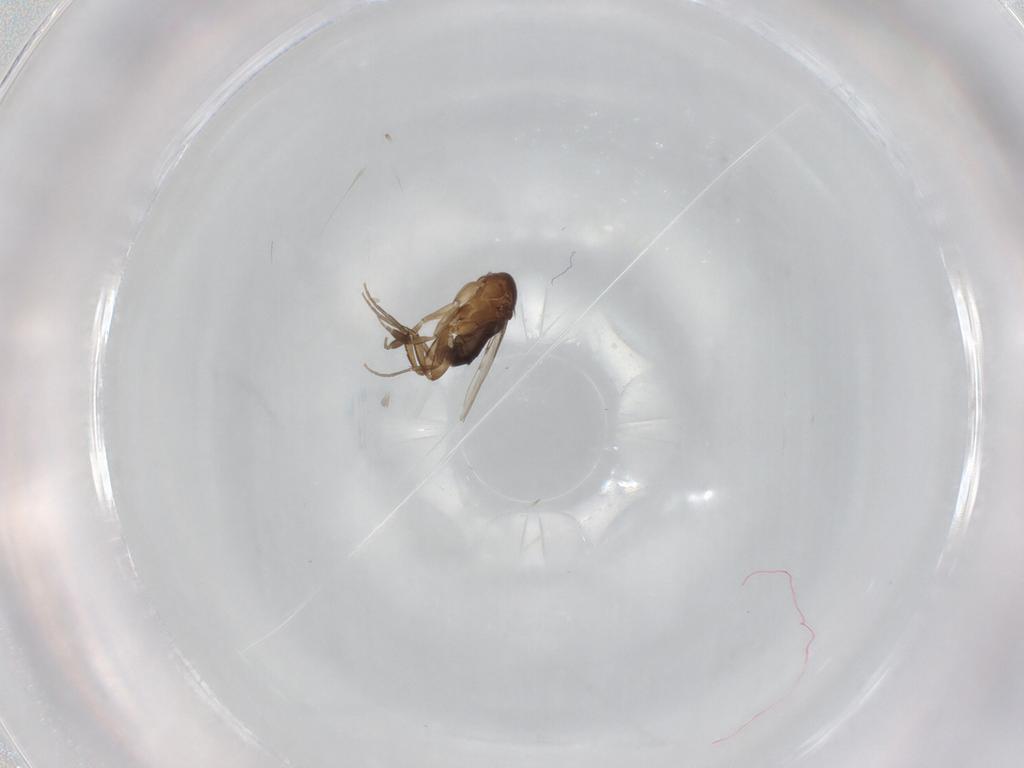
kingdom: Animalia
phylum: Arthropoda
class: Insecta
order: Diptera
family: Phoridae
